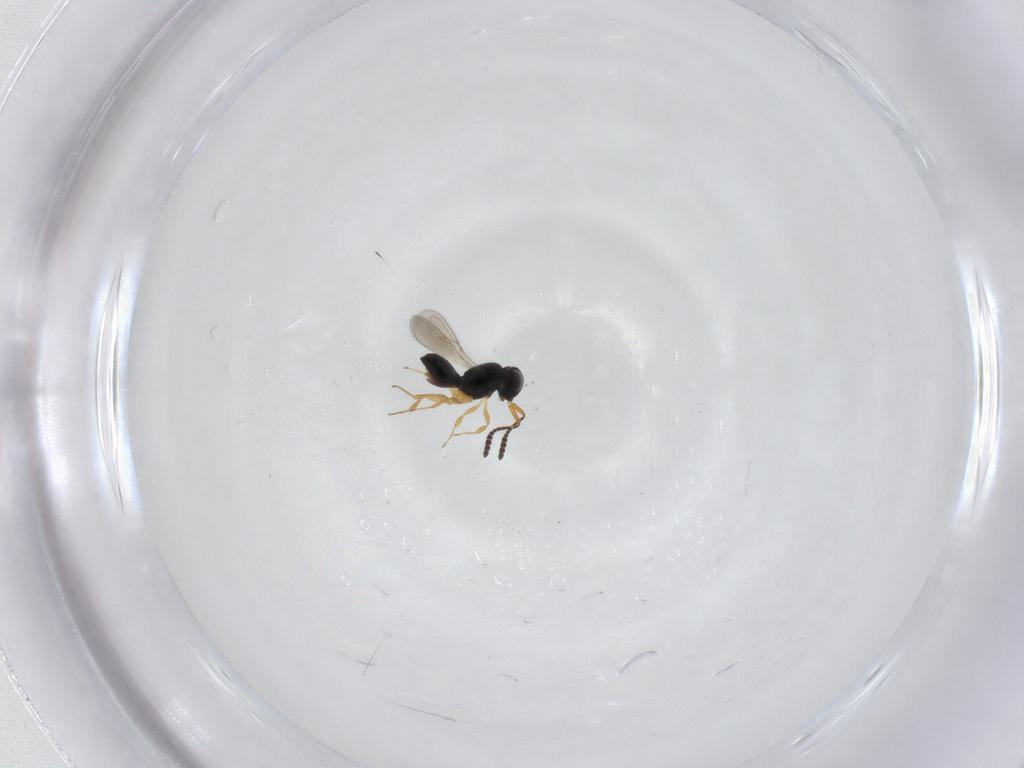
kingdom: Animalia
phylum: Arthropoda
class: Insecta
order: Hymenoptera
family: Scelionidae
